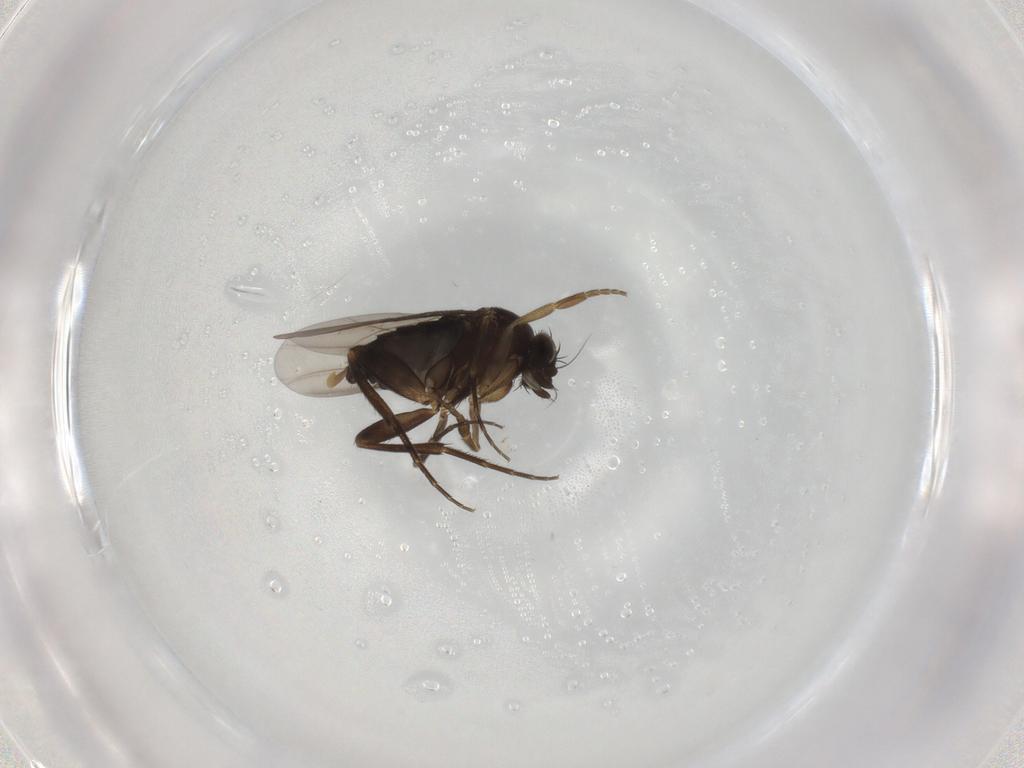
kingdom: Animalia
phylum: Arthropoda
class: Insecta
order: Diptera
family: Phoridae
